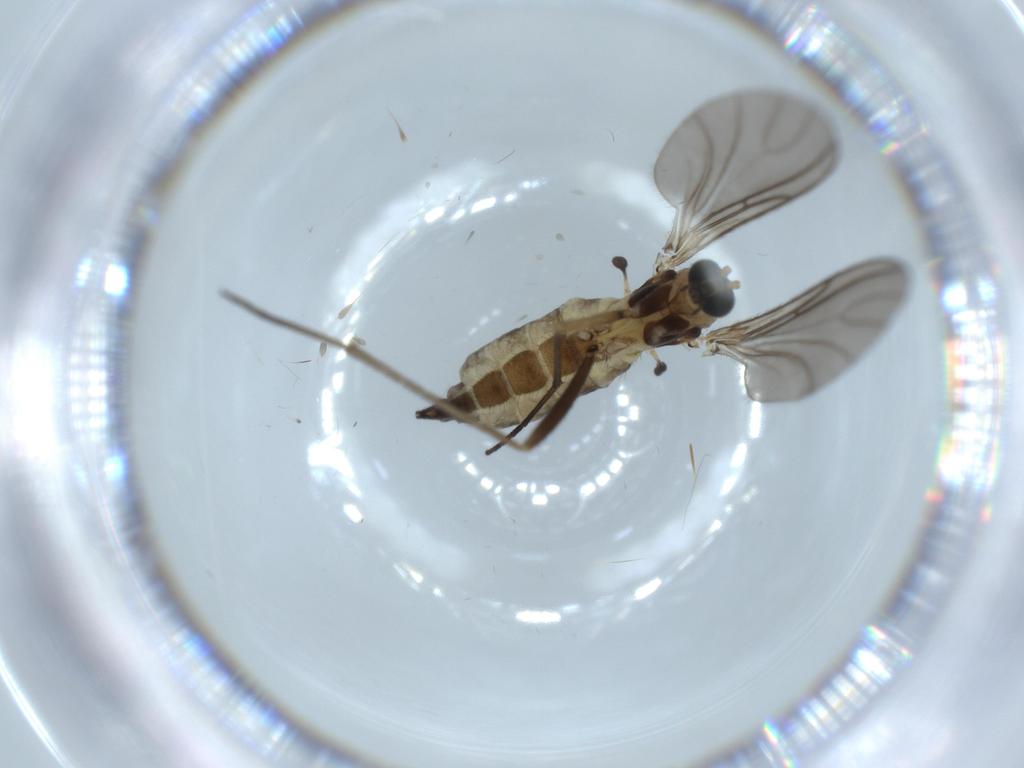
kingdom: Animalia
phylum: Arthropoda
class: Insecta
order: Diptera
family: Sciaridae
